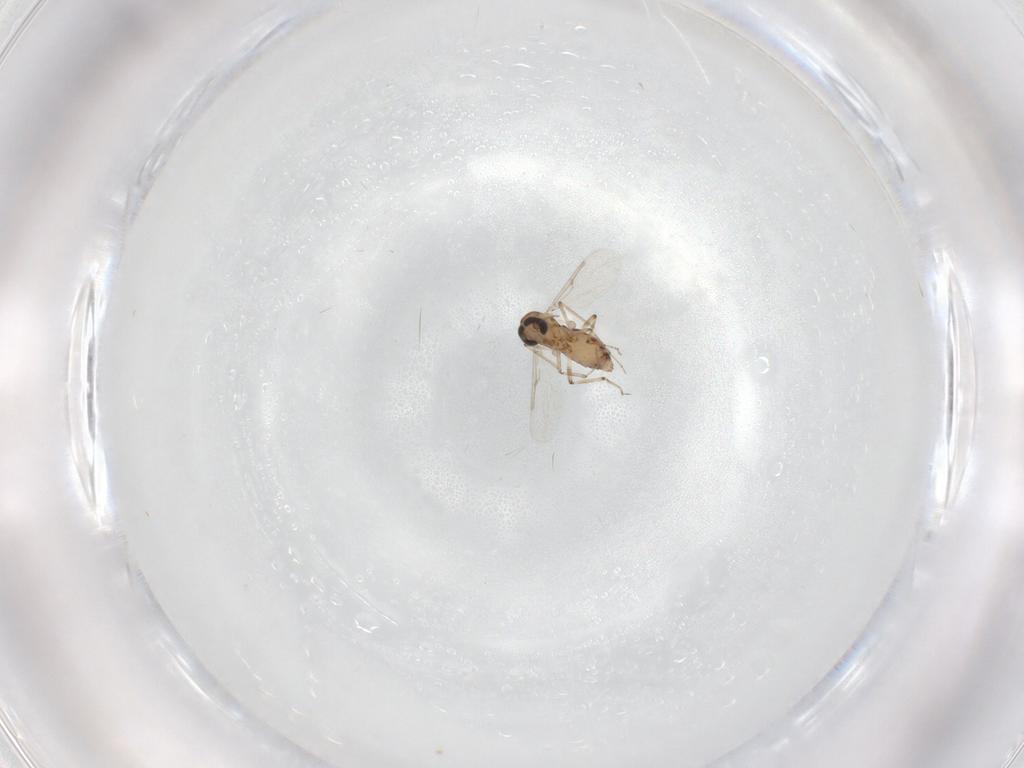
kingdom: Animalia
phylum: Arthropoda
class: Insecta
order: Diptera
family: Ceratopogonidae
